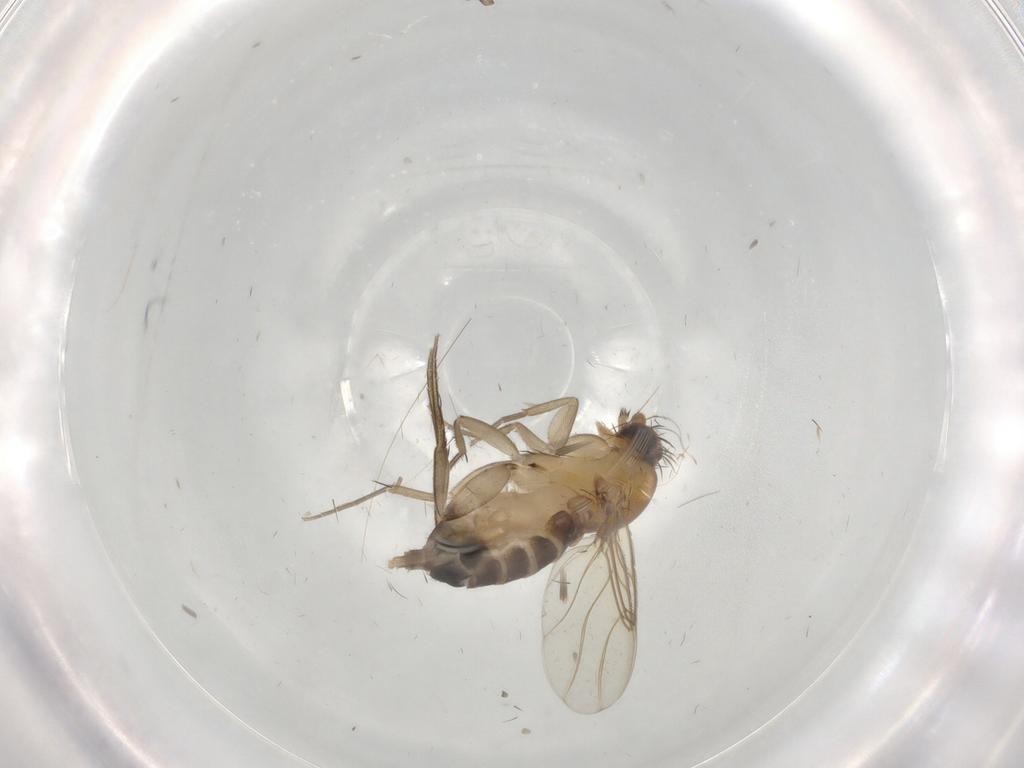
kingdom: Animalia
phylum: Arthropoda
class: Insecta
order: Diptera
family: Phoridae
